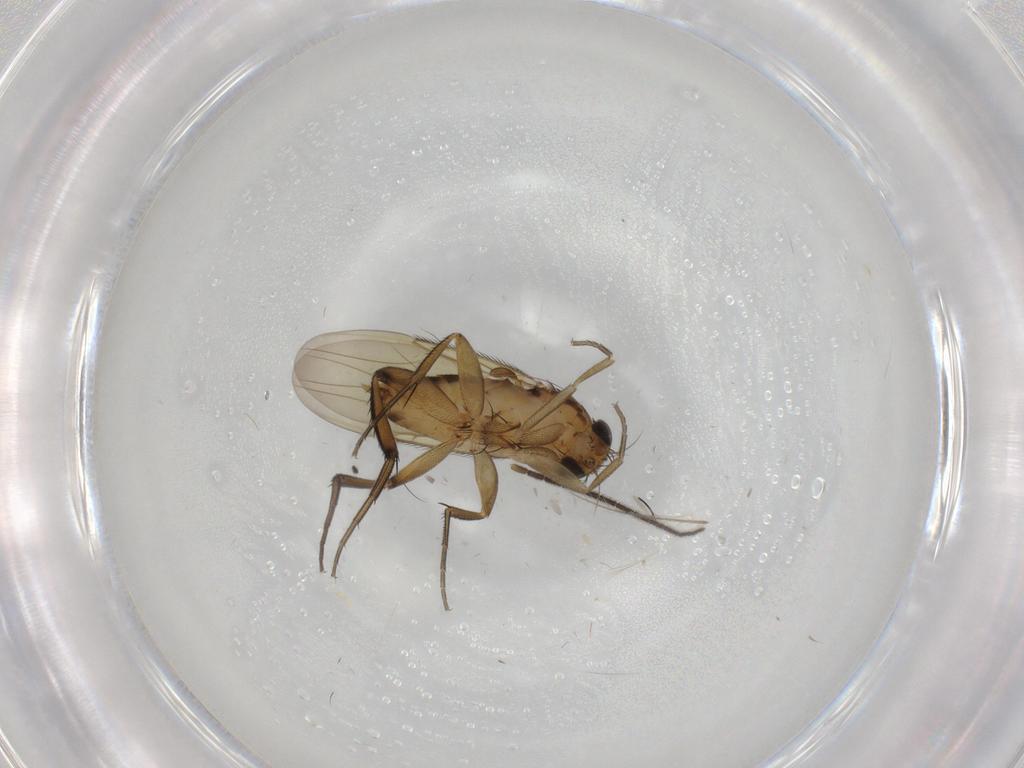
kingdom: Animalia
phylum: Arthropoda
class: Insecta
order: Diptera
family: Phoridae
